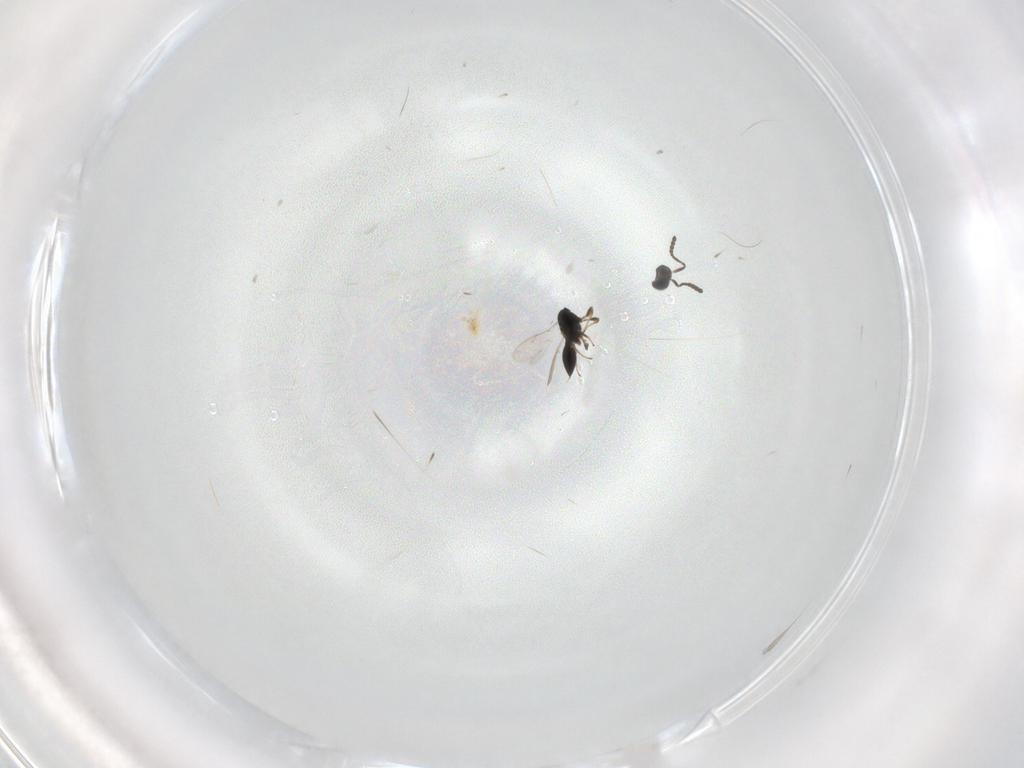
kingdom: Animalia
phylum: Arthropoda
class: Insecta
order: Hymenoptera
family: Scelionidae
